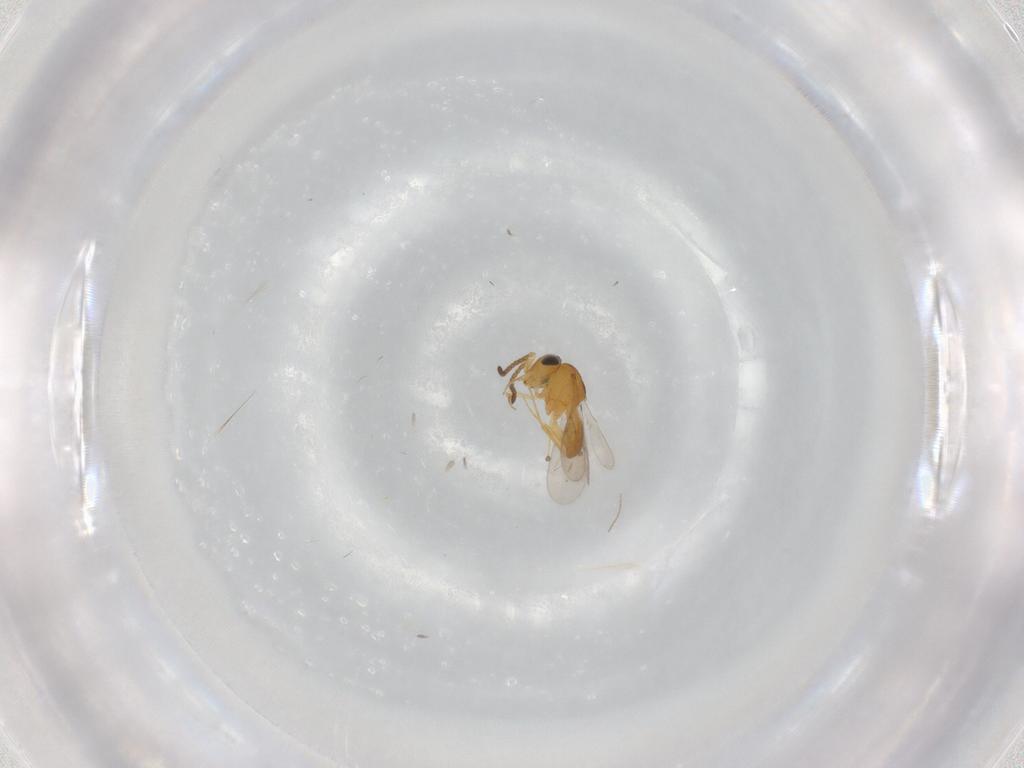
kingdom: Animalia
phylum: Arthropoda
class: Insecta
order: Hymenoptera
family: Scelionidae
